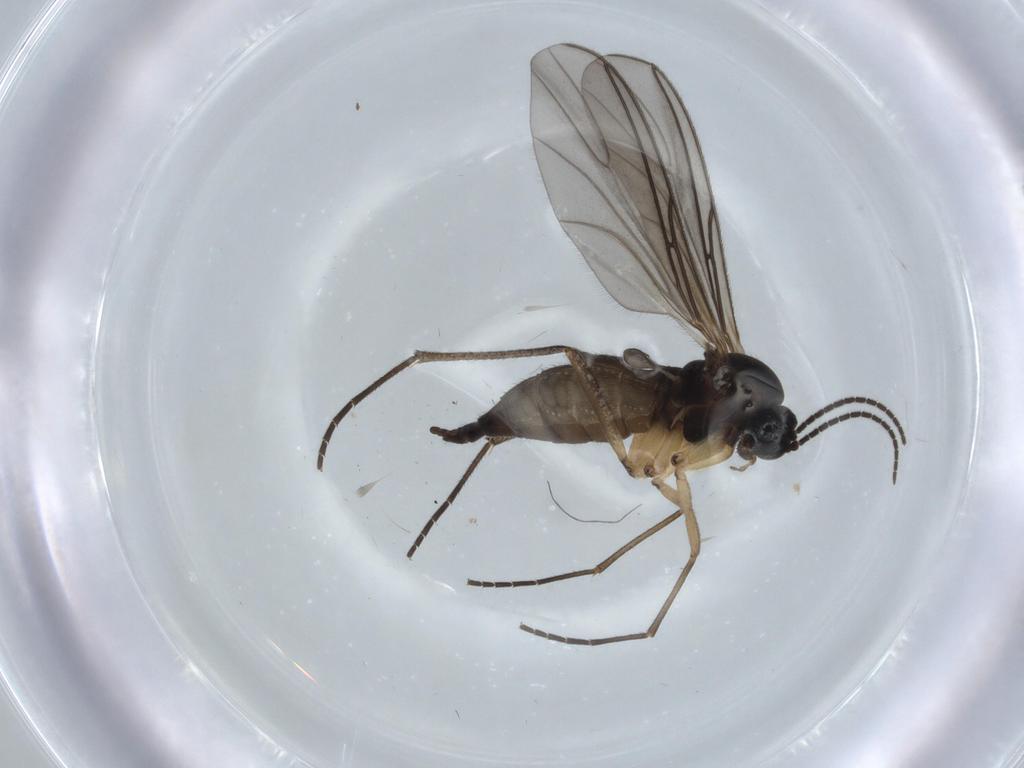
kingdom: Animalia
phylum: Arthropoda
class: Insecta
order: Diptera
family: Sciaridae
